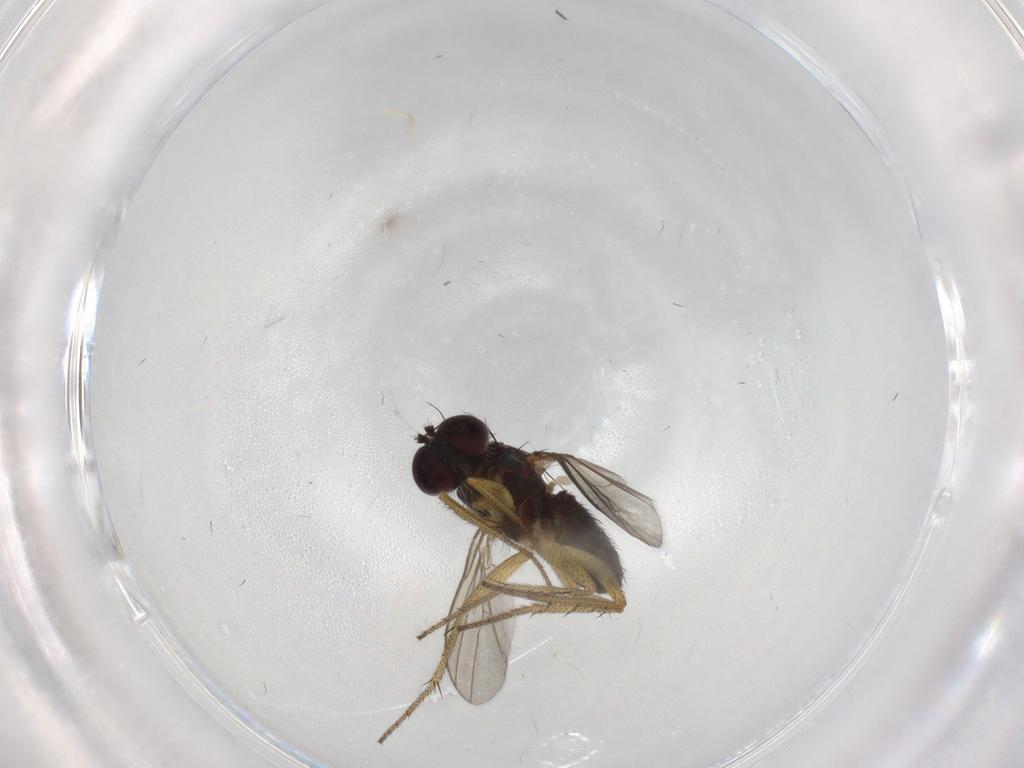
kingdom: Animalia
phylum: Arthropoda
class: Insecta
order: Diptera
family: Dolichopodidae
